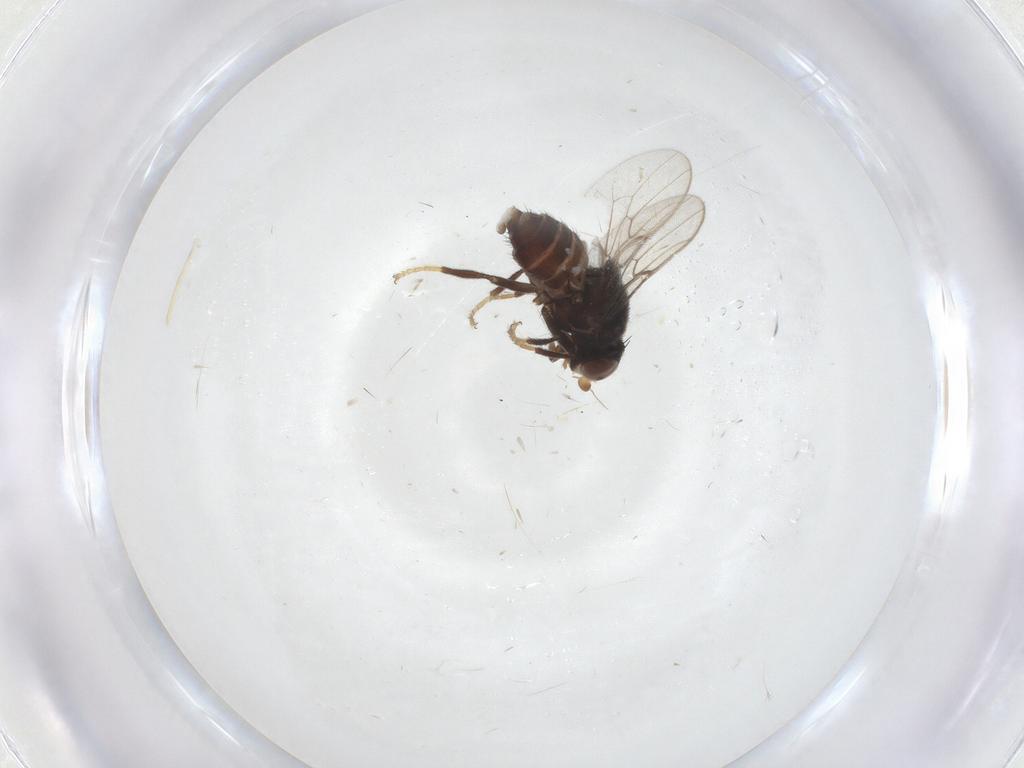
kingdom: Animalia
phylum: Arthropoda
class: Insecta
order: Diptera
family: Chloropidae
